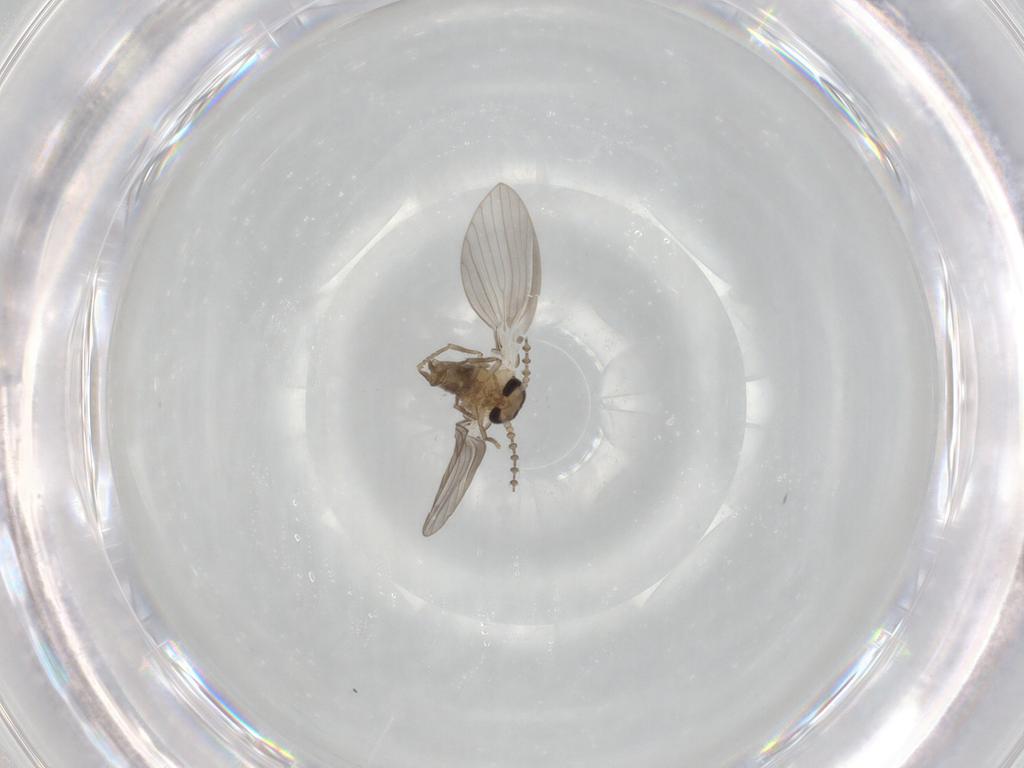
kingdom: Animalia
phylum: Arthropoda
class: Insecta
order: Diptera
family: Psychodidae
